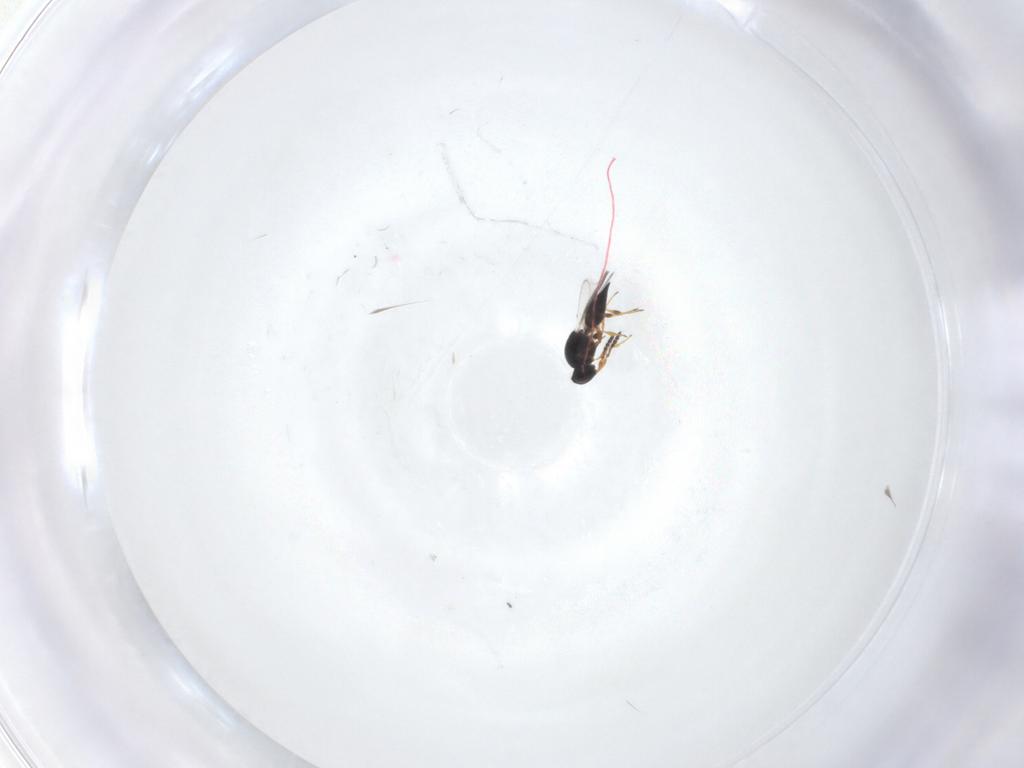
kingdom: Animalia
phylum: Arthropoda
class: Insecta
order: Hymenoptera
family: Platygastridae
